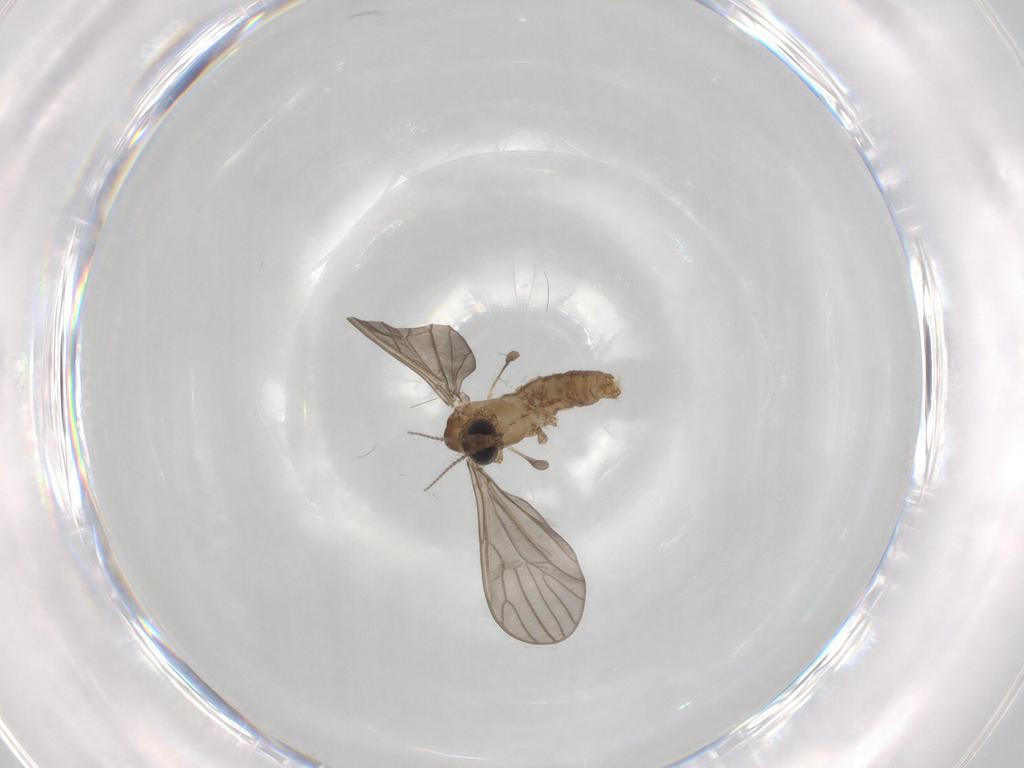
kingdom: Animalia
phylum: Arthropoda
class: Insecta
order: Diptera
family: Limoniidae
